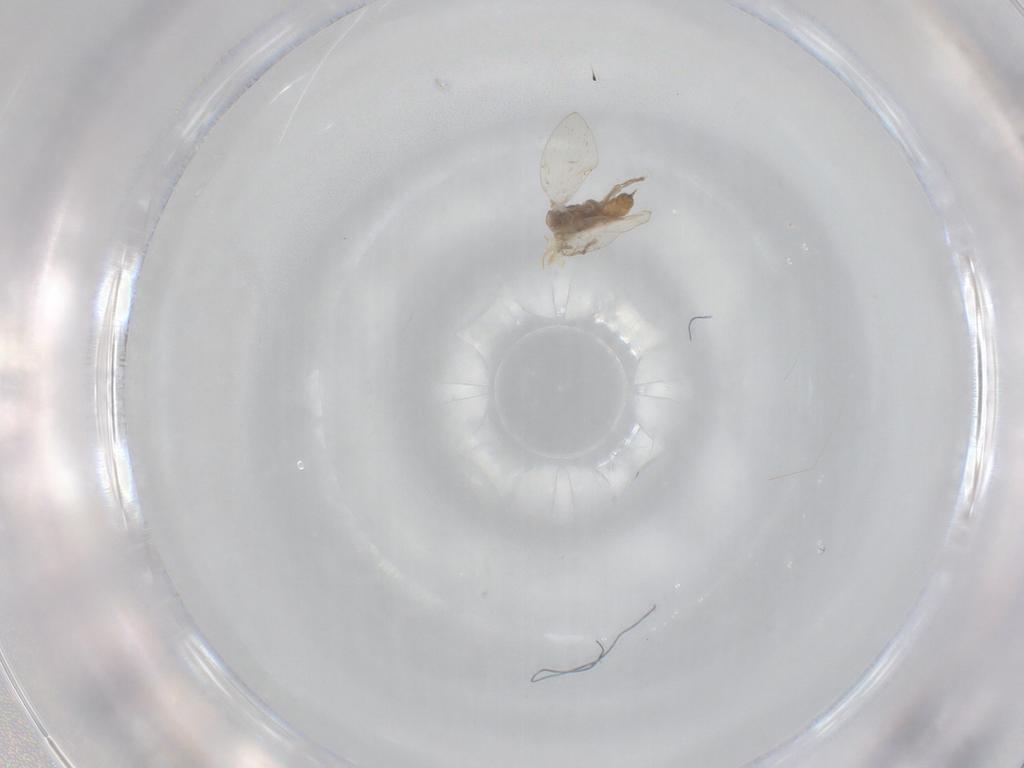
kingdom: Animalia
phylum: Arthropoda
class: Insecta
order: Diptera
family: Psychodidae
